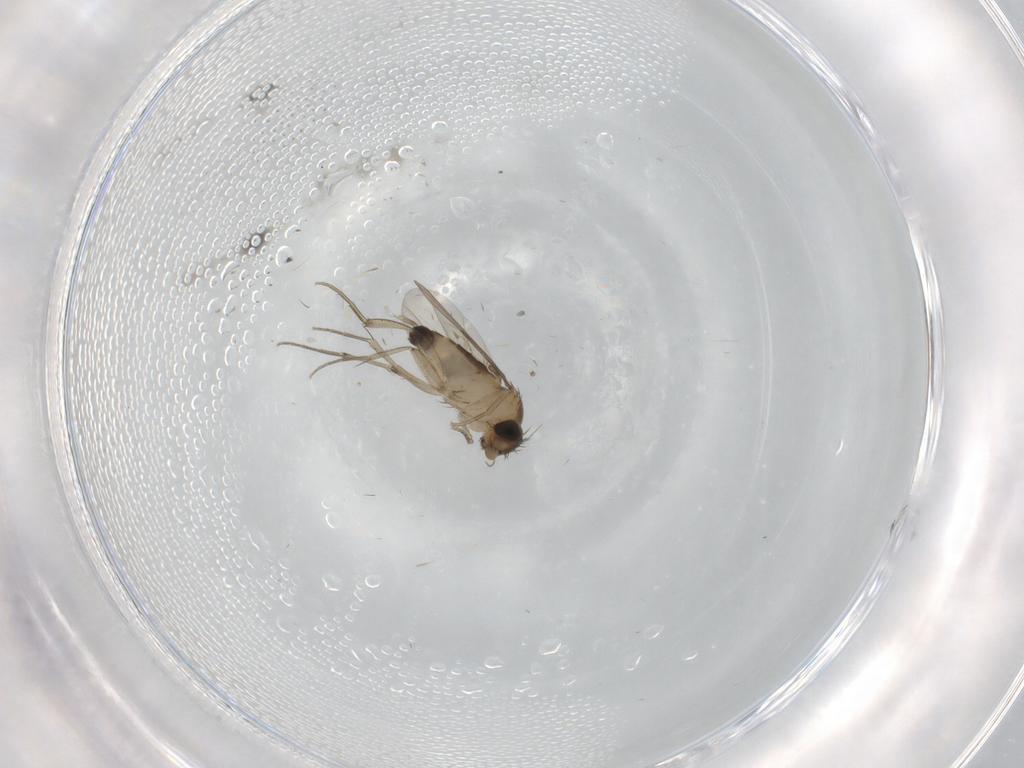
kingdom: Animalia
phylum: Arthropoda
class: Insecta
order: Diptera
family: Phoridae
